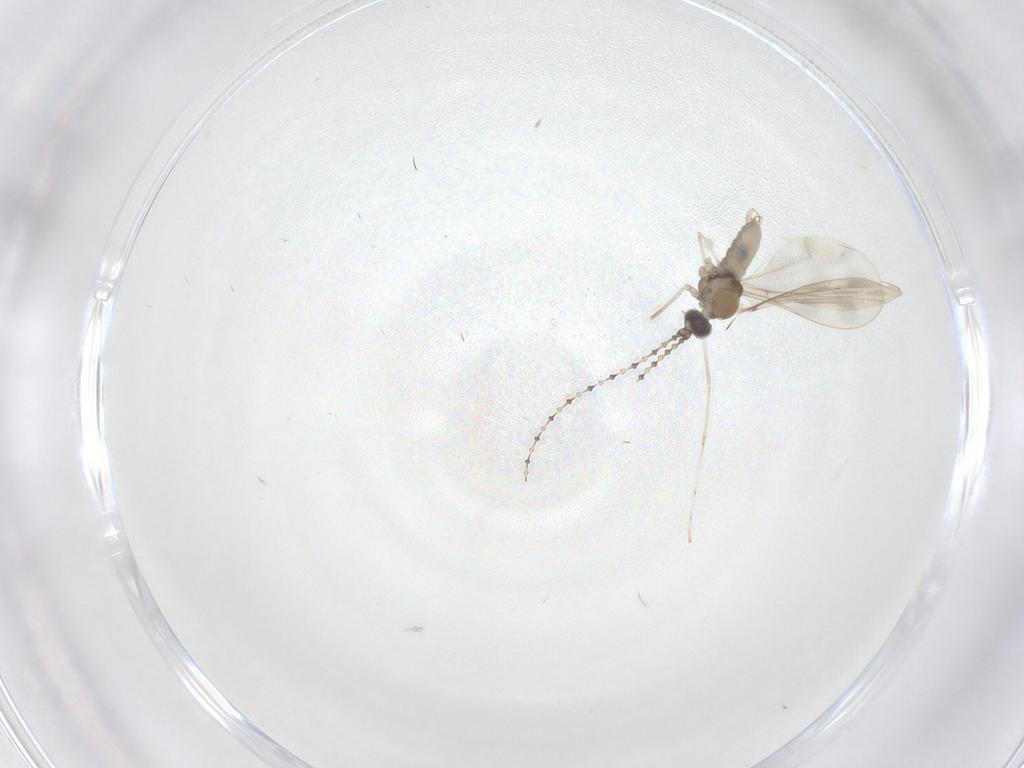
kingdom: Animalia
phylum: Arthropoda
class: Insecta
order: Diptera
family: Cecidomyiidae
